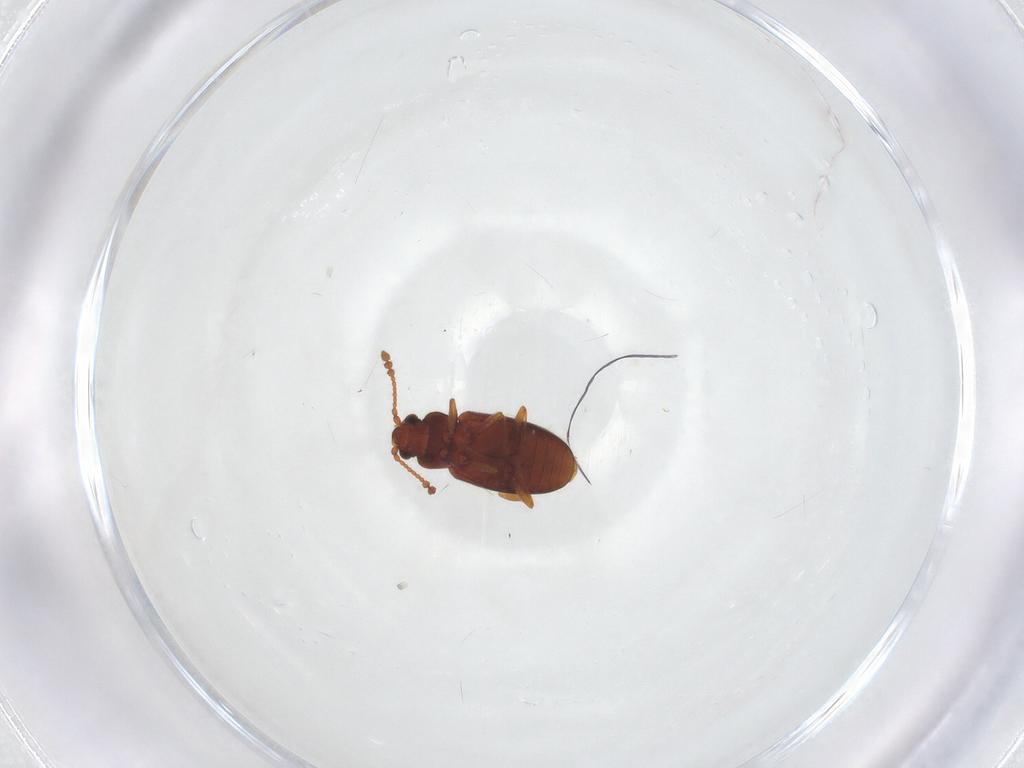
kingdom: Animalia
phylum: Arthropoda
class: Insecta
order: Coleoptera
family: Cryptophagidae
